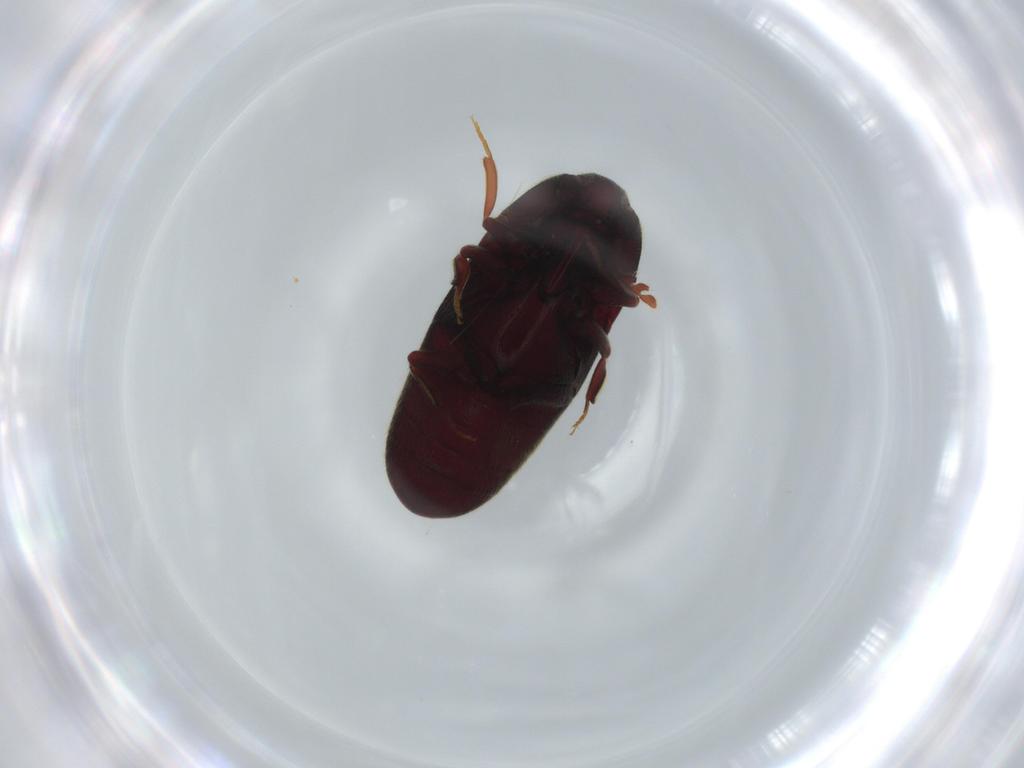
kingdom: Animalia
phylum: Arthropoda
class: Insecta
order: Coleoptera
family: Throscidae
